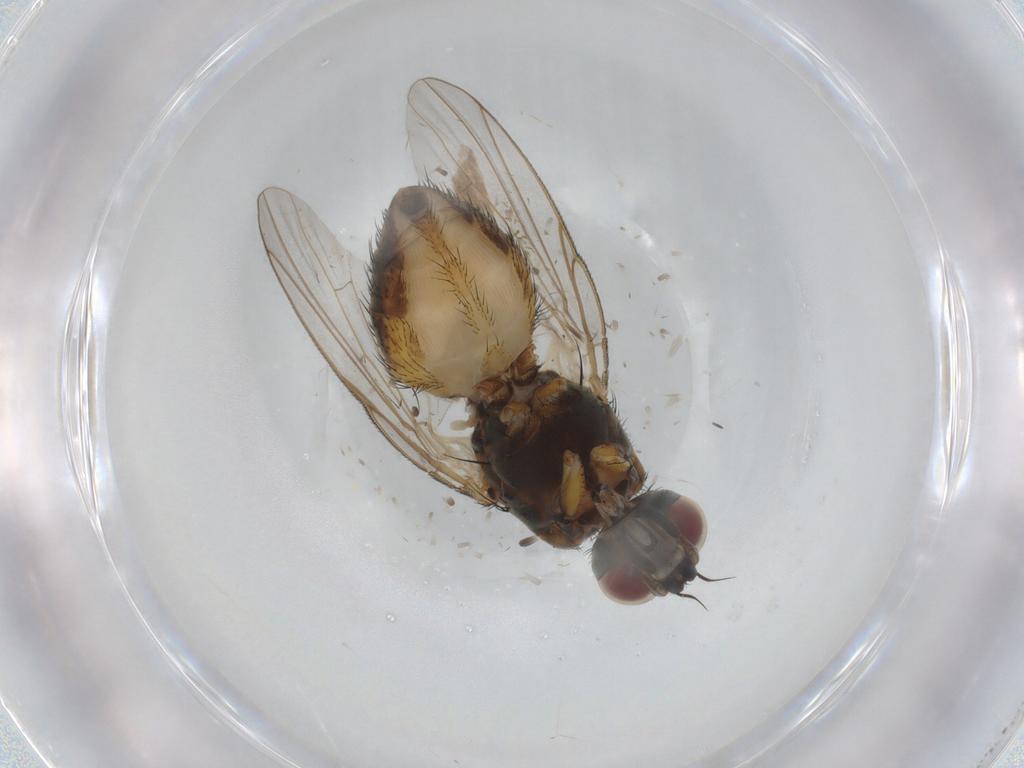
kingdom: Animalia
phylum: Arthropoda
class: Insecta
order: Diptera
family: Muscidae
